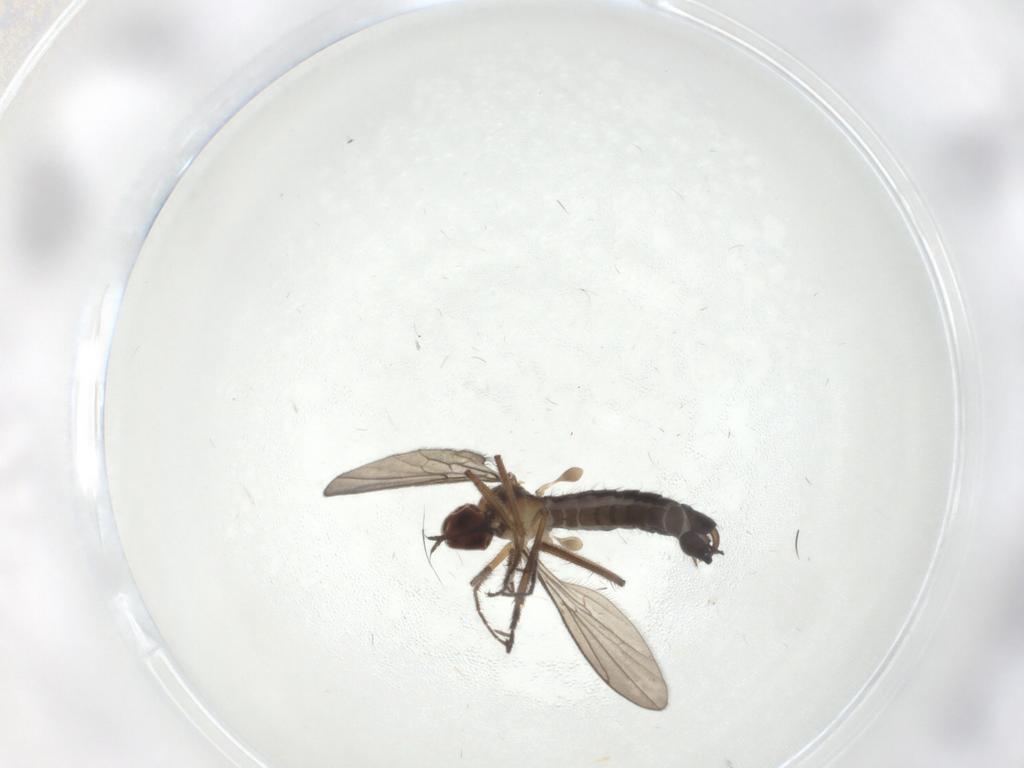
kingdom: Animalia
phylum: Arthropoda
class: Insecta
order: Diptera
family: Hybotidae
